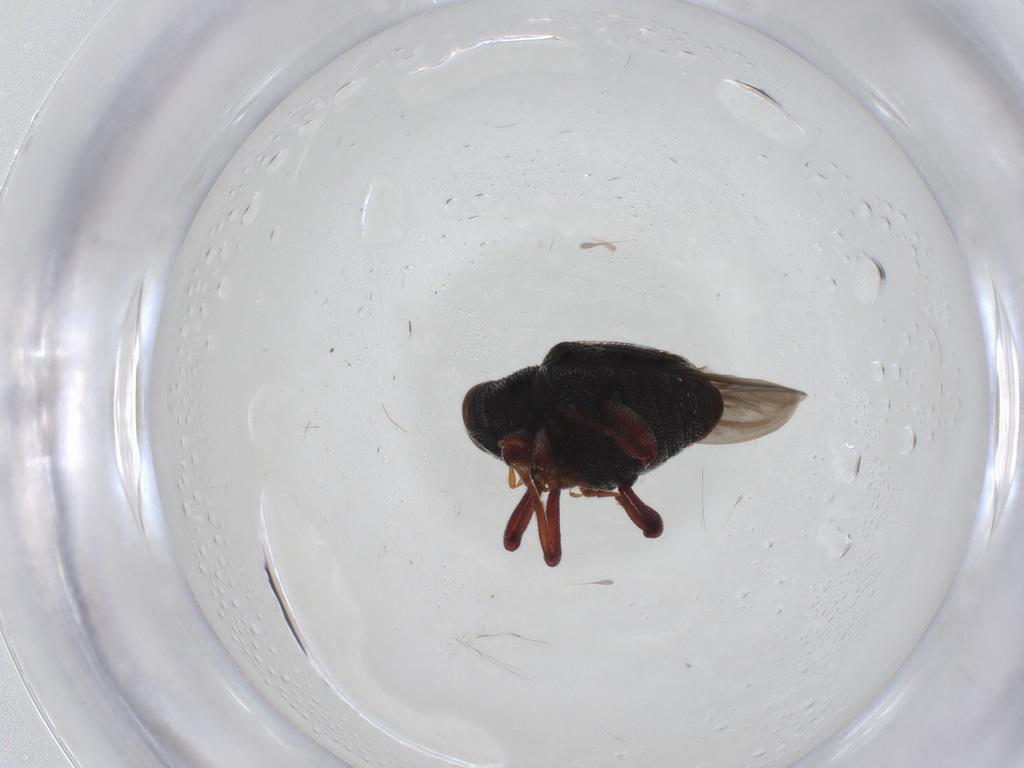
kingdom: Animalia
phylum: Arthropoda
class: Insecta
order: Coleoptera
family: Curculionidae
